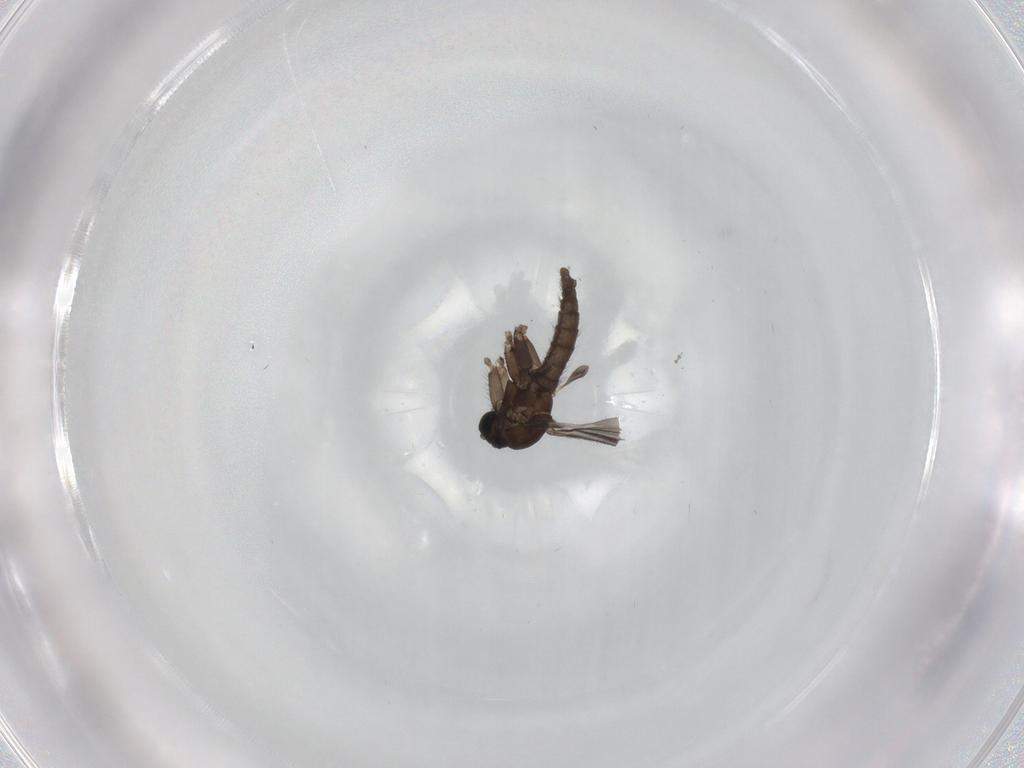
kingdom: Animalia
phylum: Arthropoda
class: Insecta
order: Diptera
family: Sciaridae
